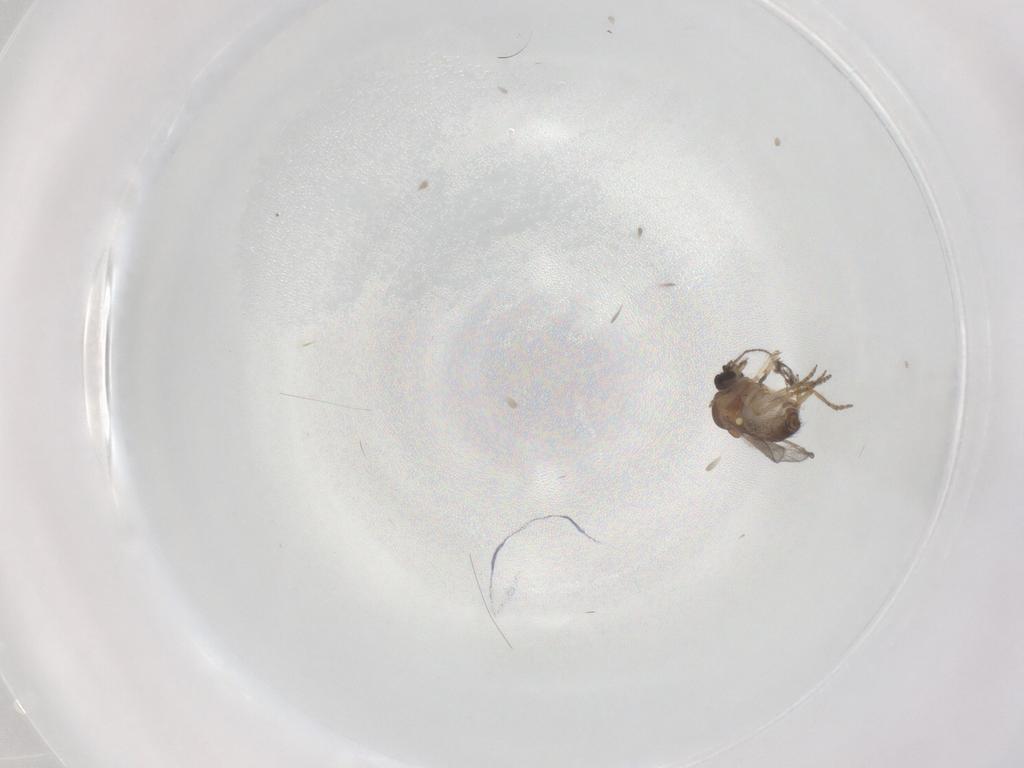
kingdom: Animalia
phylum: Arthropoda
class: Insecta
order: Diptera
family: Ceratopogonidae
